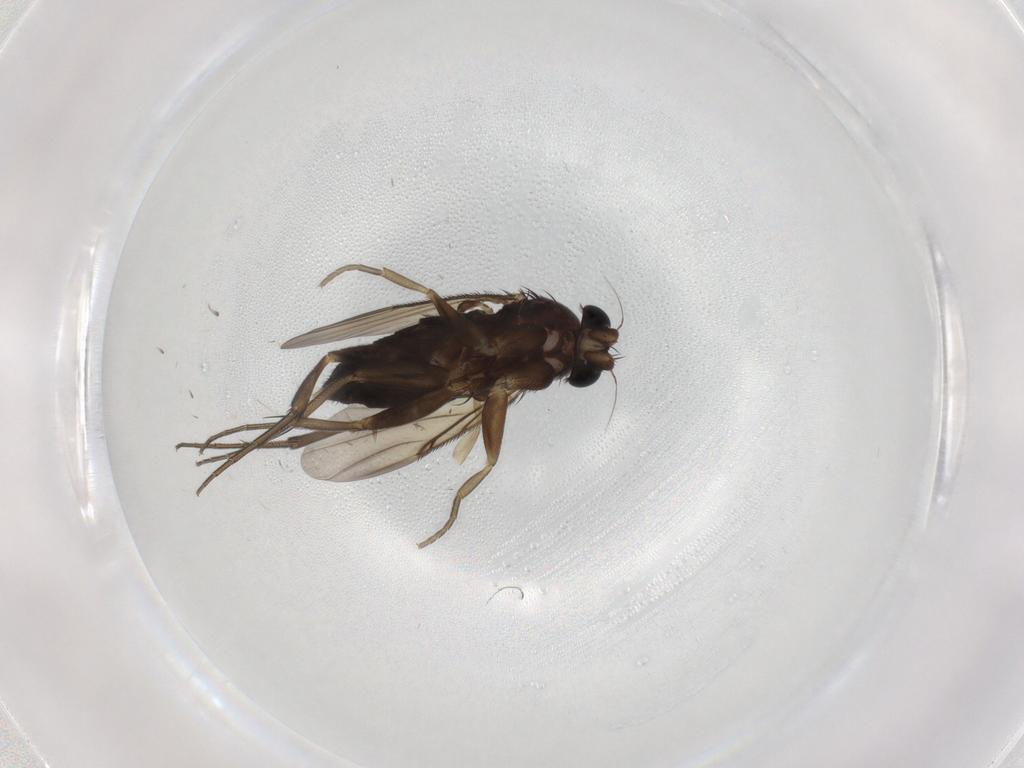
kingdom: Animalia
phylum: Arthropoda
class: Insecta
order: Diptera
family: Phoridae
